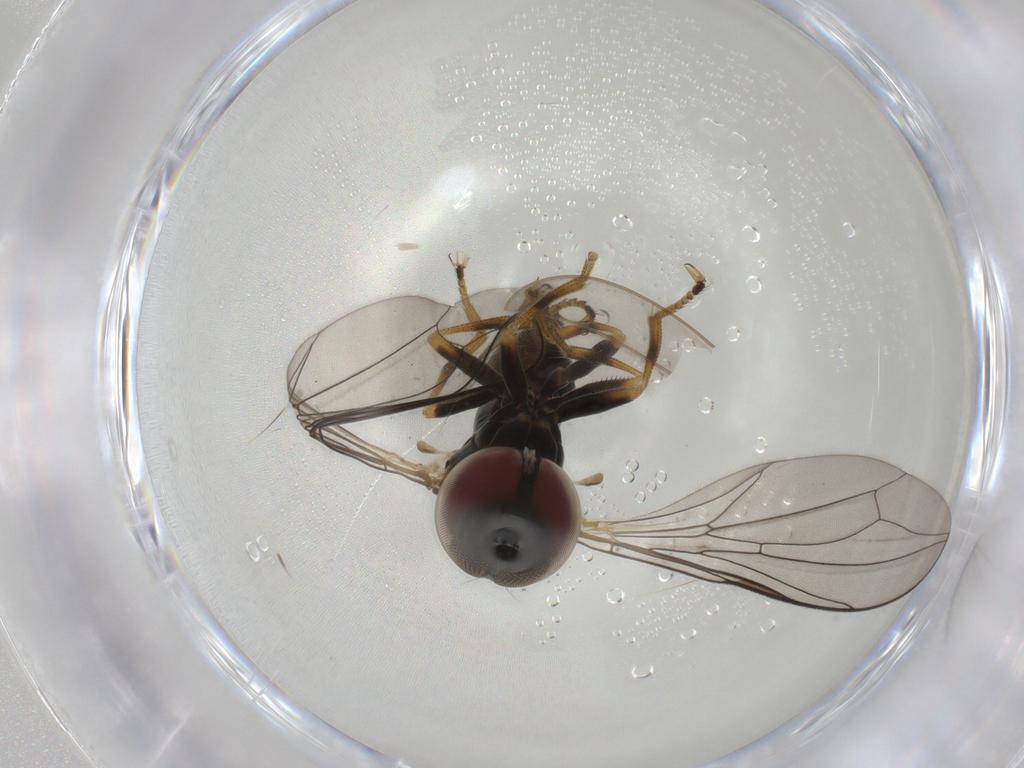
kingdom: Animalia
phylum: Arthropoda
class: Insecta
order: Diptera
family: Pipunculidae
